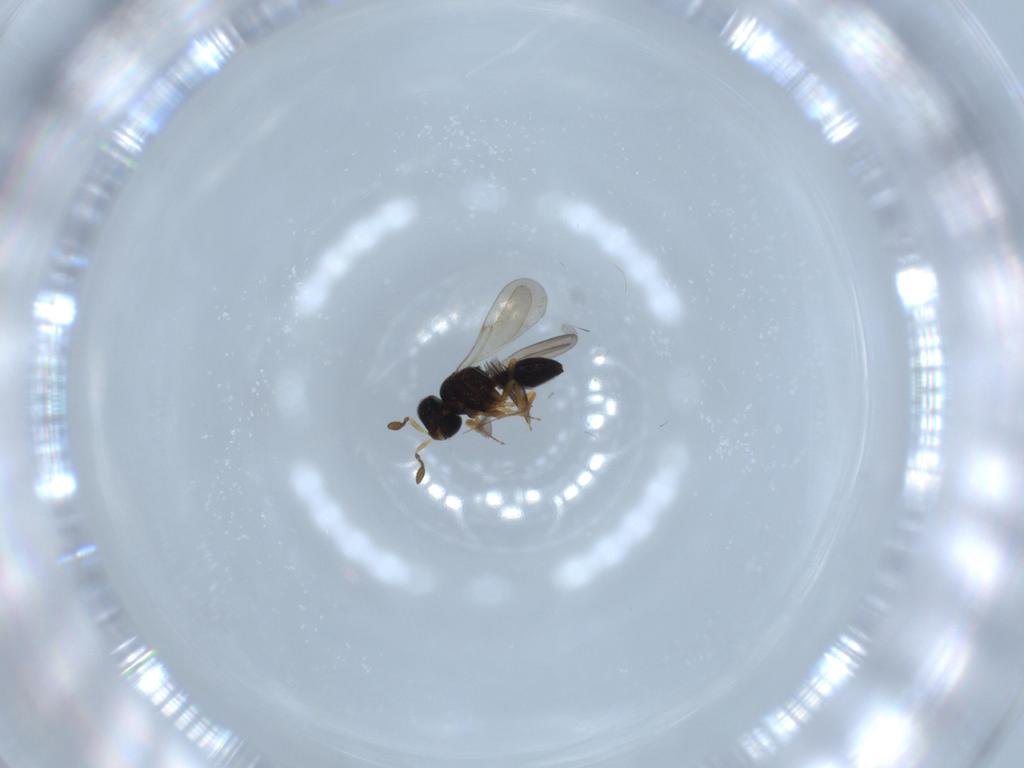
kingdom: Animalia
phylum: Arthropoda
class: Insecta
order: Hymenoptera
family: Scelionidae
